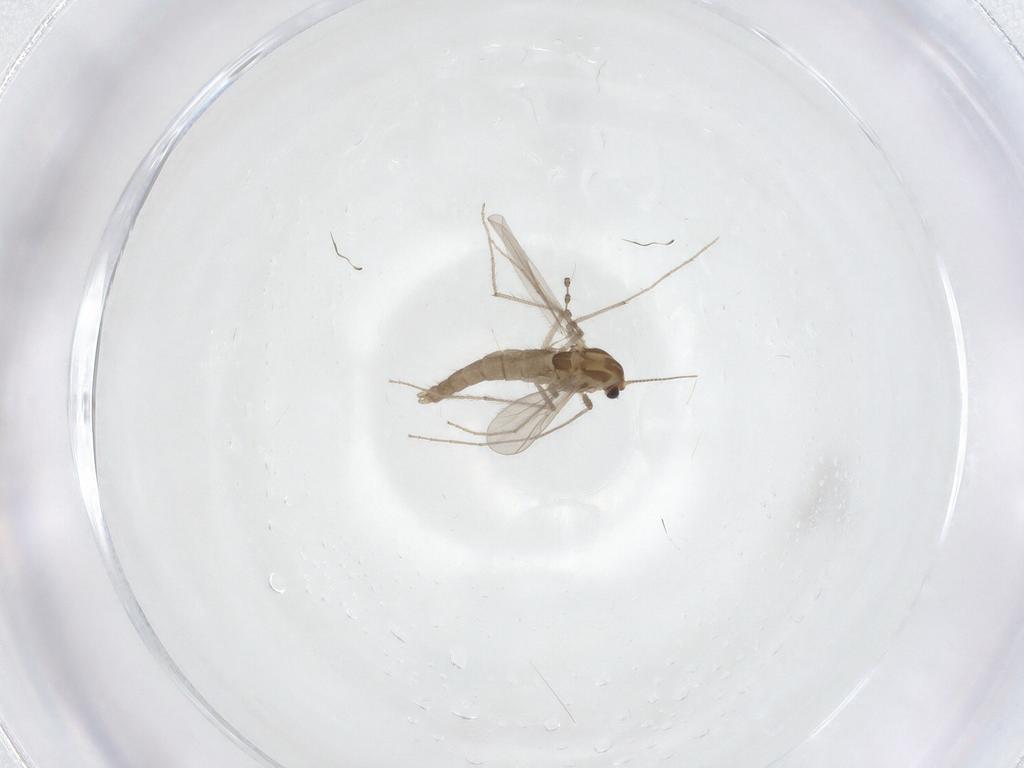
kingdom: Animalia
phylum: Arthropoda
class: Insecta
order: Diptera
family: Chironomidae
